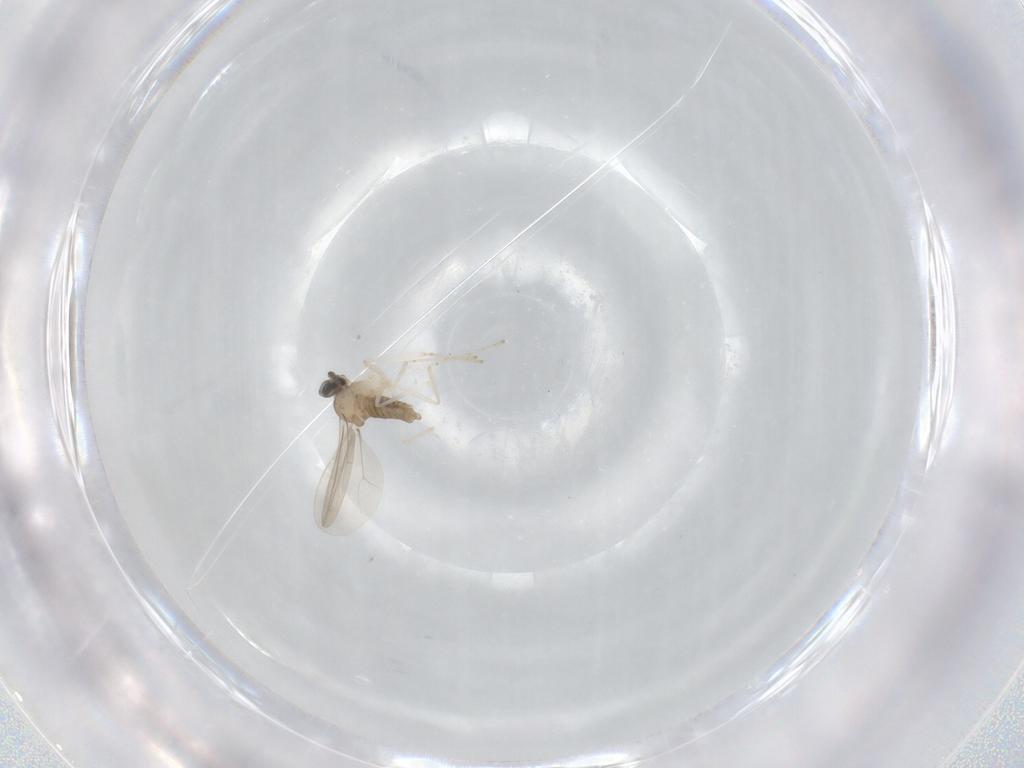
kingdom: Animalia
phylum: Arthropoda
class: Insecta
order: Diptera
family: Cecidomyiidae
